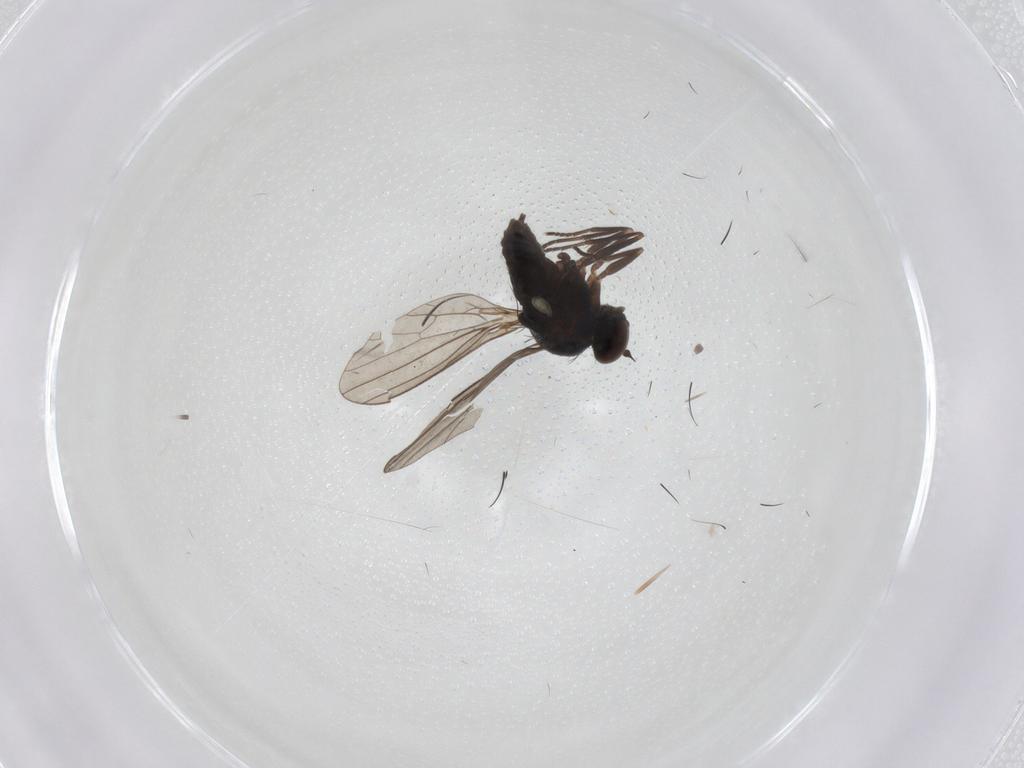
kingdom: Animalia
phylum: Arthropoda
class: Insecta
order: Diptera
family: Dolichopodidae
